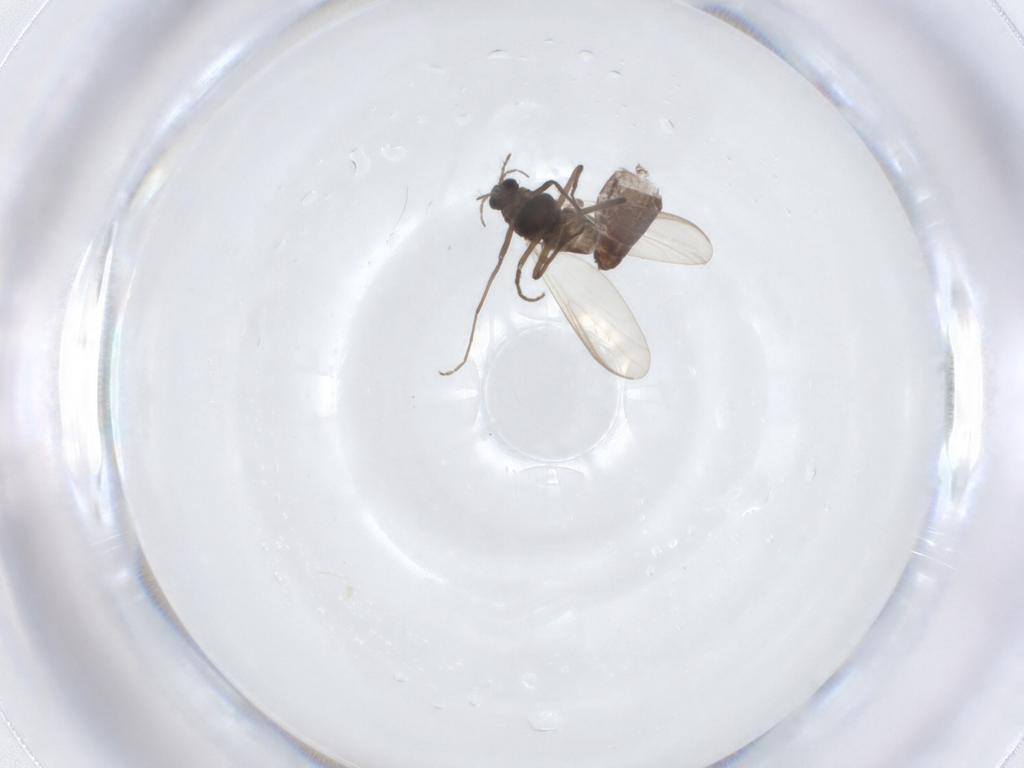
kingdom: Animalia
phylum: Arthropoda
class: Insecta
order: Diptera
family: Chironomidae
